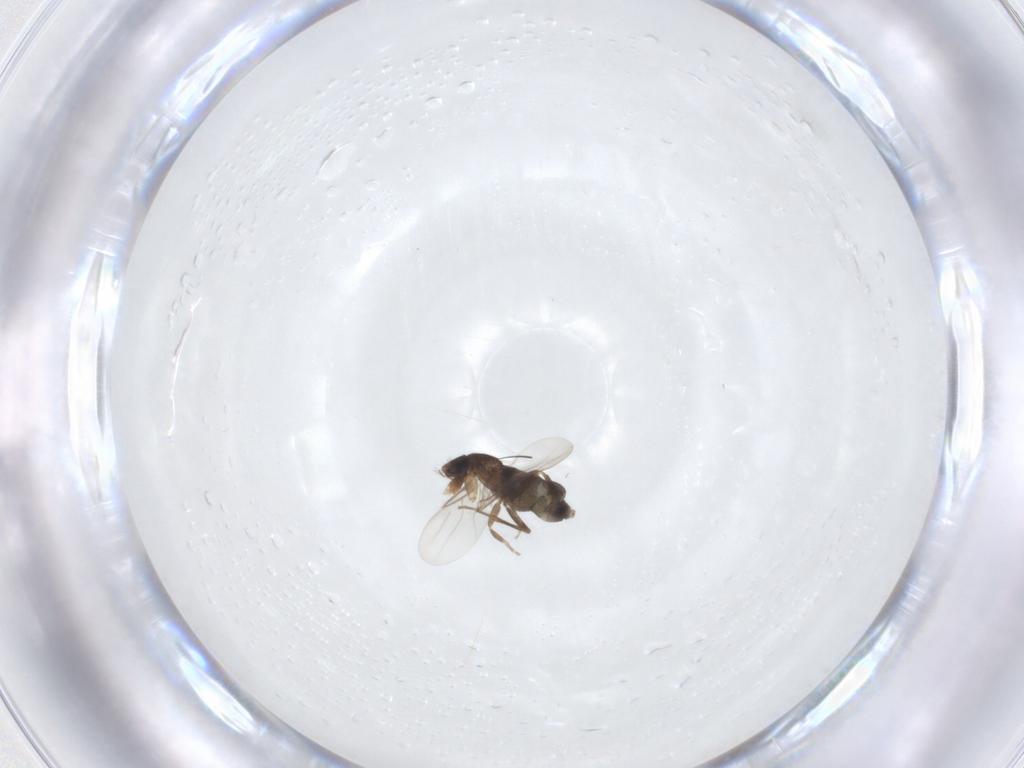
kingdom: Animalia
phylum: Arthropoda
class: Insecta
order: Diptera
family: Phoridae
